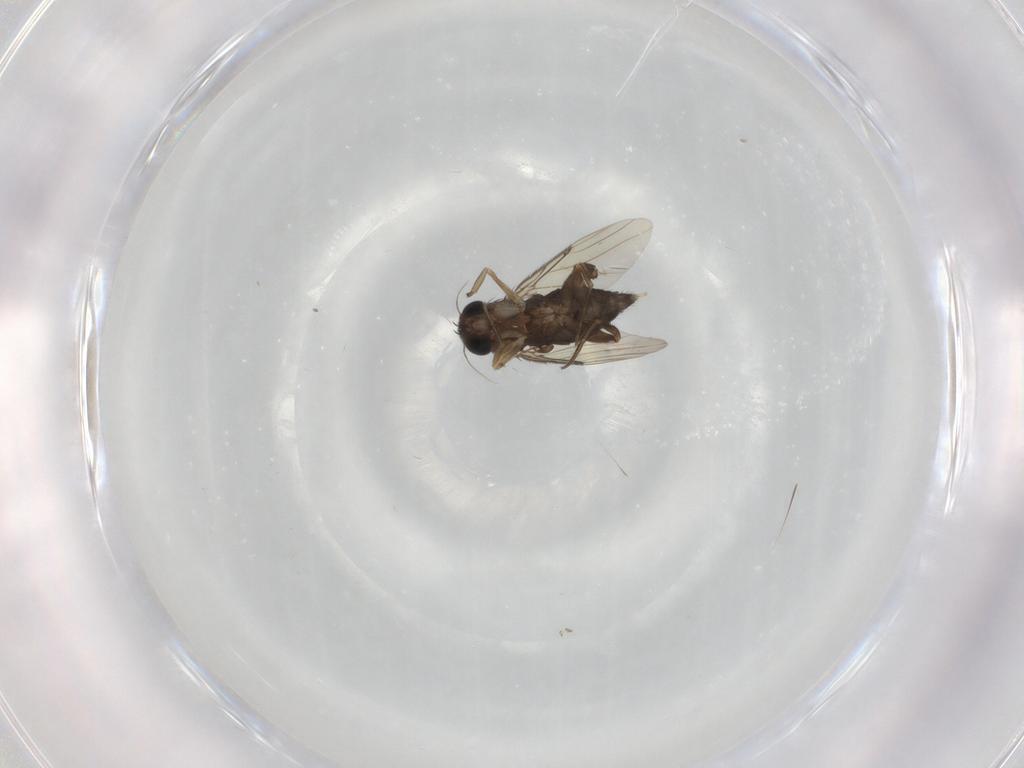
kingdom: Animalia
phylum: Arthropoda
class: Insecta
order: Diptera
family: Phoridae
